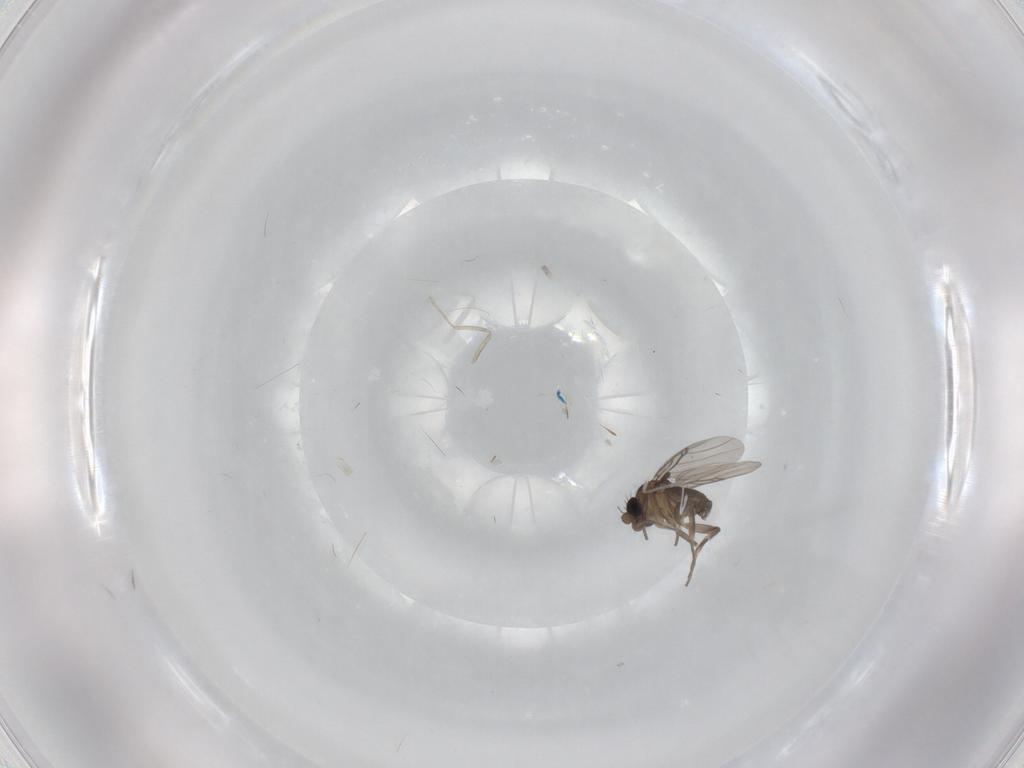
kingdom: Animalia
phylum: Arthropoda
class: Insecta
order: Diptera
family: Cecidomyiidae
